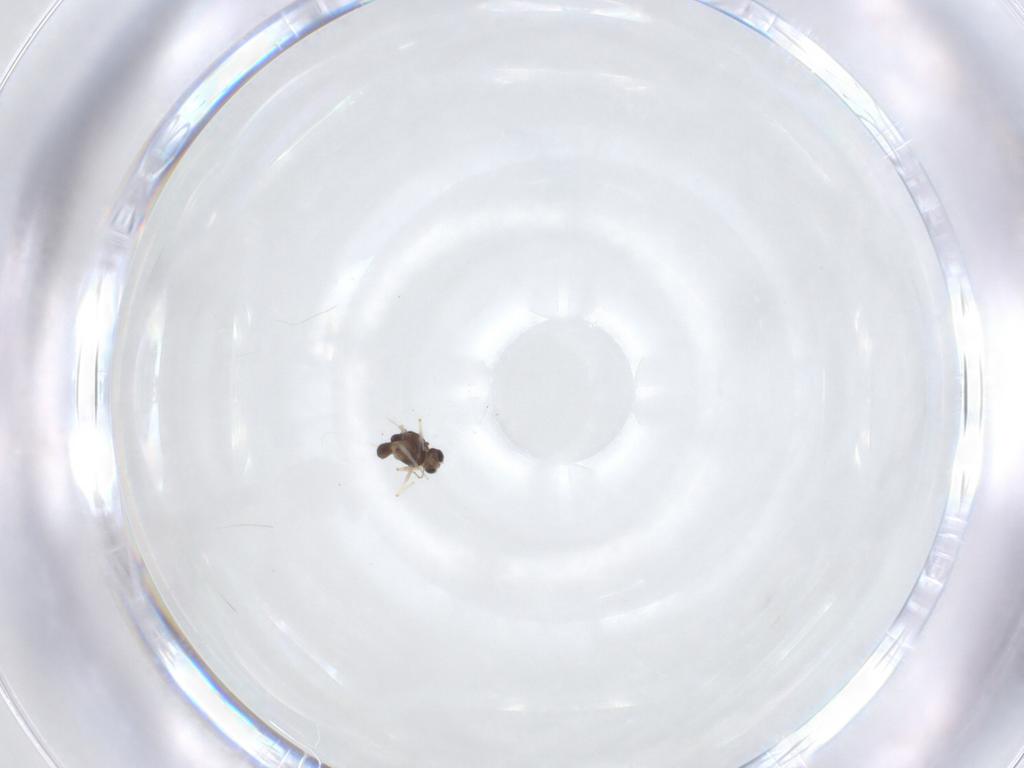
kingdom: Animalia
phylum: Arthropoda
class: Insecta
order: Diptera
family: Chironomidae
